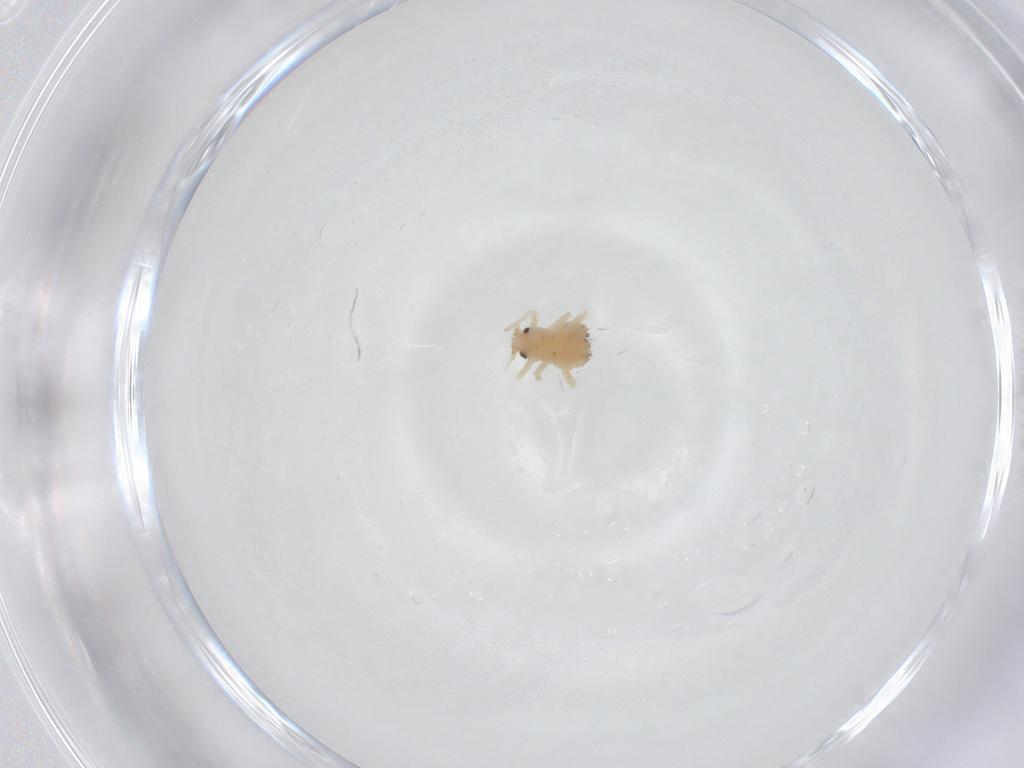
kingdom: Animalia
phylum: Arthropoda
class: Insecta
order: Hemiptera
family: Aphididae
